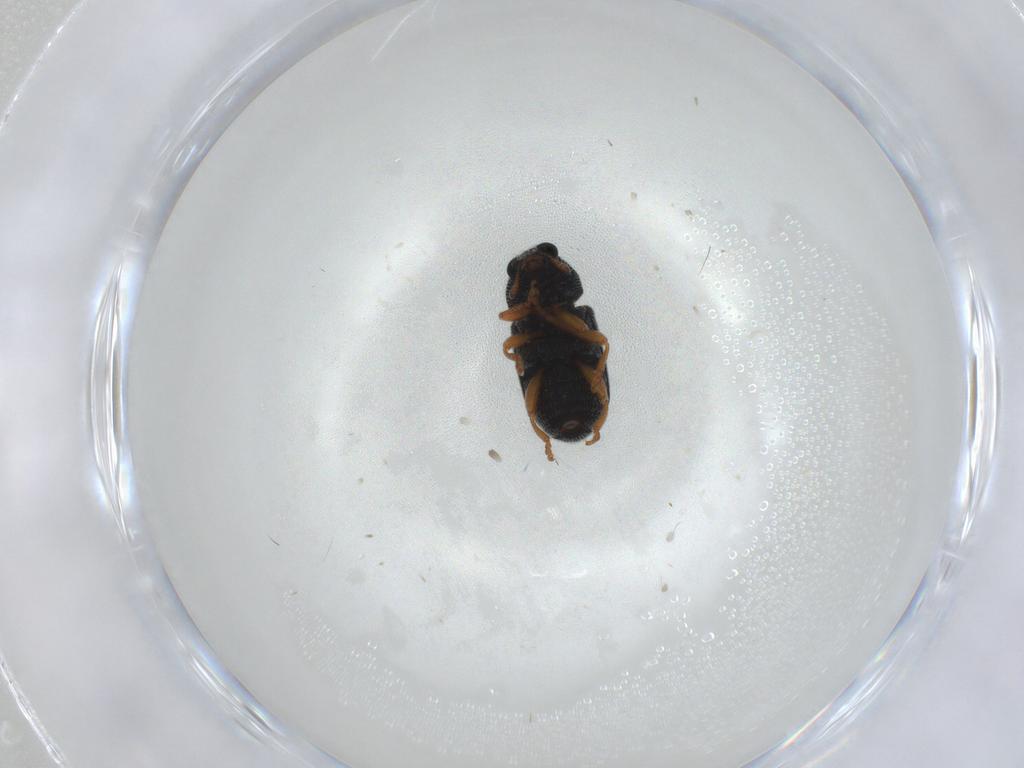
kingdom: Animalia
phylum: Arthropoda
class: Insecta
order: Coleoptera
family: Anthribidae
